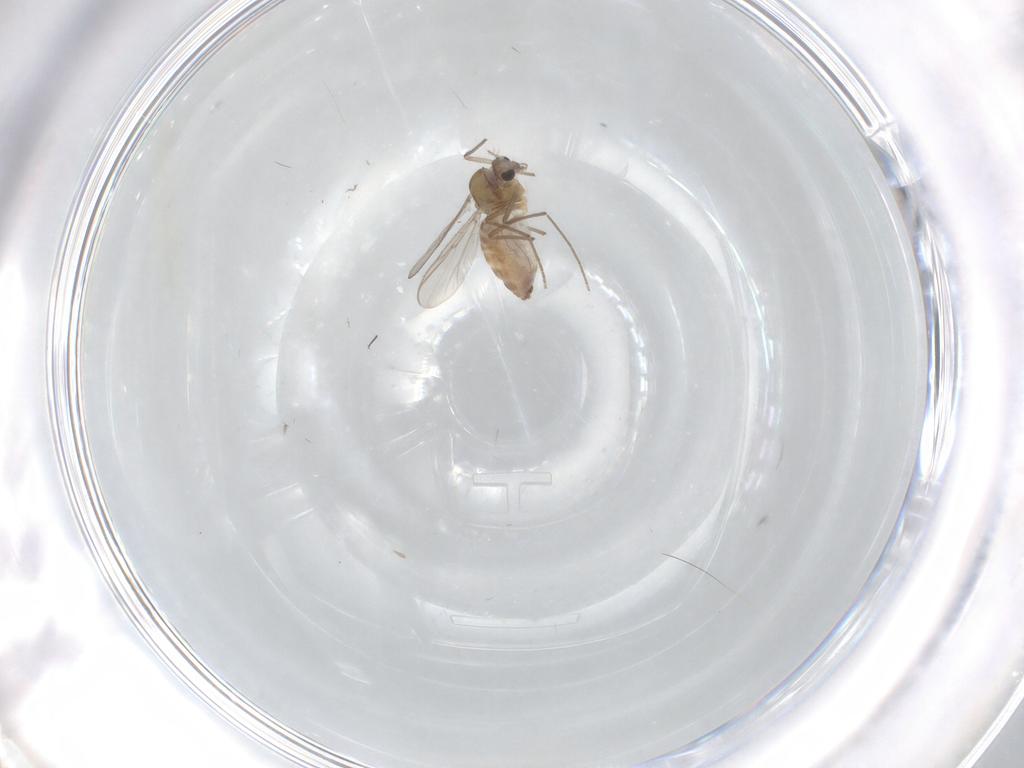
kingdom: Animalia
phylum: Arthropoda
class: Insecta
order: Diptera
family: Chironomidae
